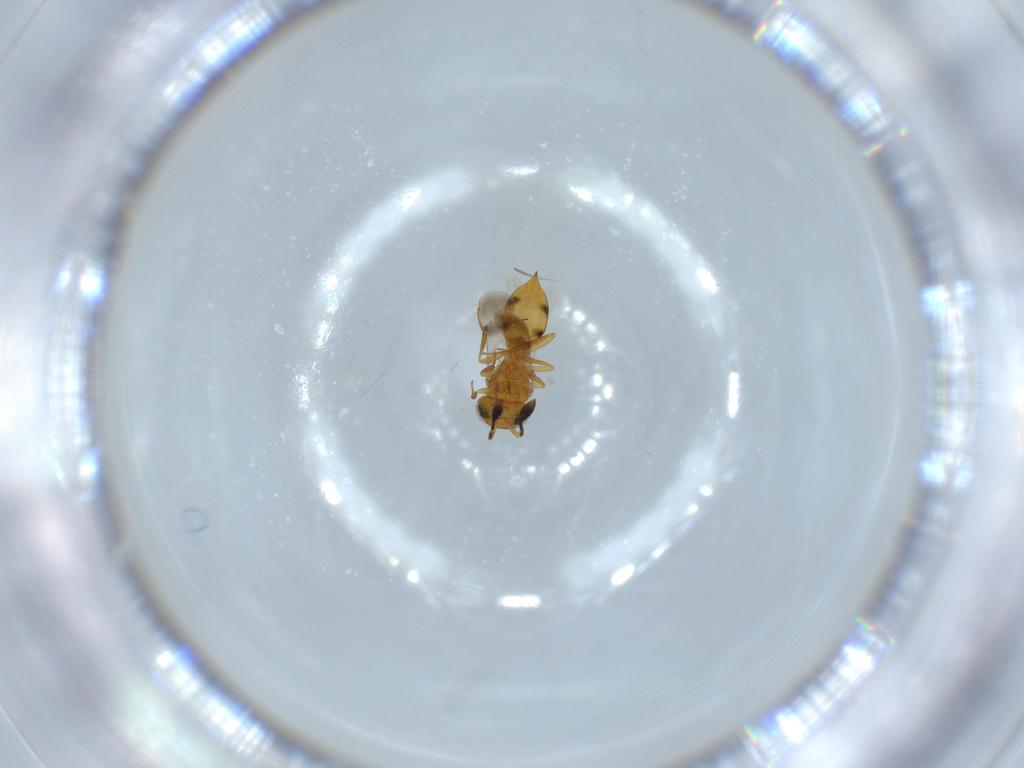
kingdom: Animalia
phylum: Arthropoda
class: Insecta
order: Hymenoptera
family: Scelionidae
